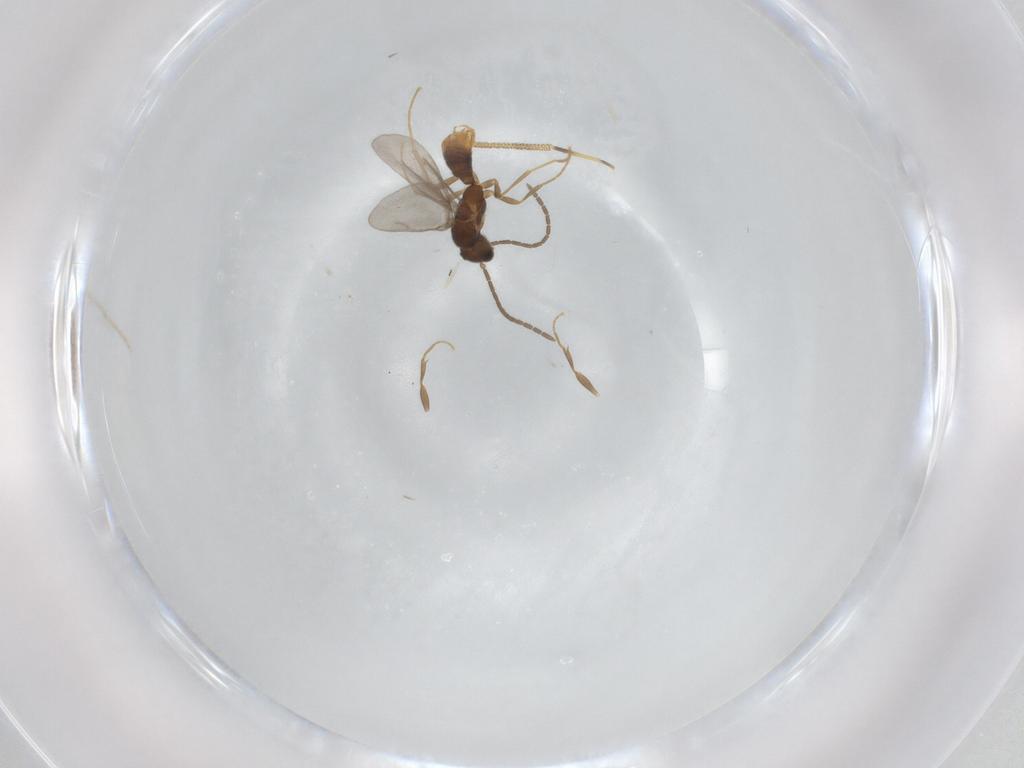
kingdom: Animalia
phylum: Arthropoda
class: Insecta
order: Hymenoptera
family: Formicidae
